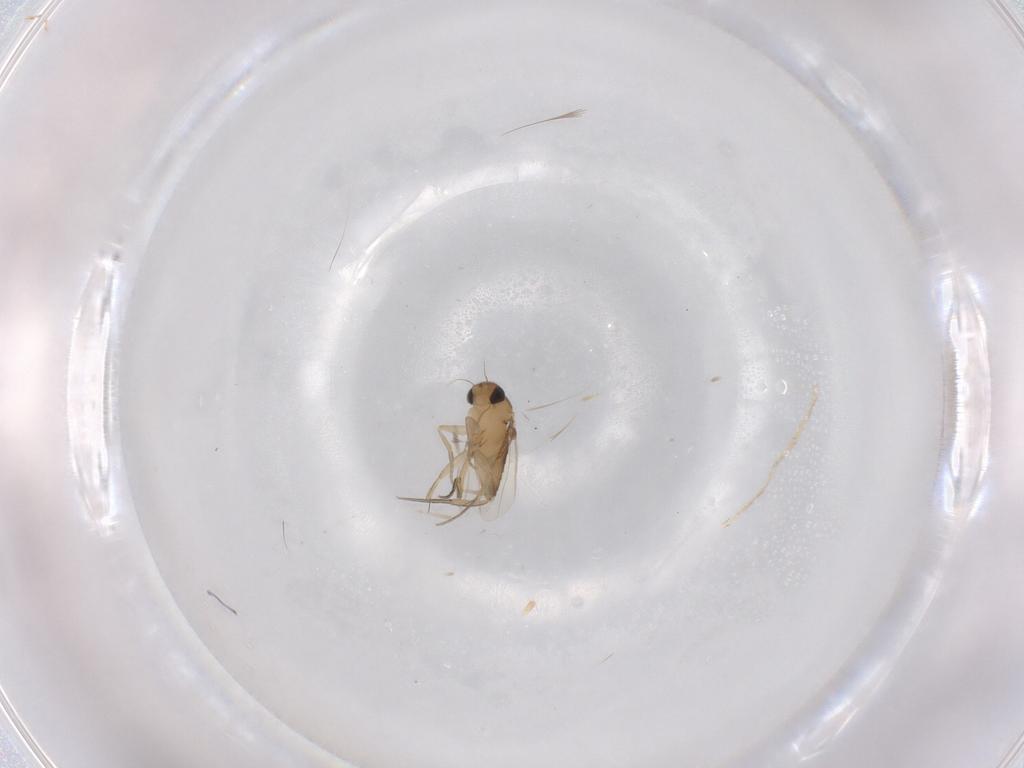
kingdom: Animalia
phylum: Arthropoda
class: Insecta
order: Diptera
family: Phoridae
